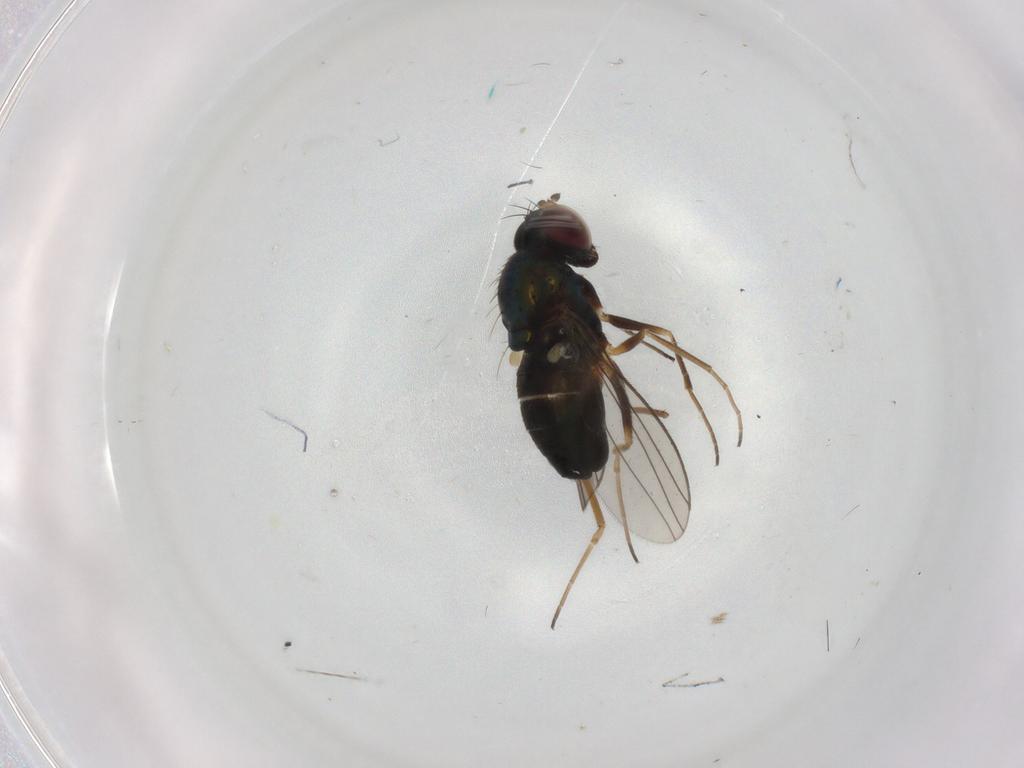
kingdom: Animalia
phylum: Arthropoda
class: Insecta
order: Diptera
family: Dolichopodidae
